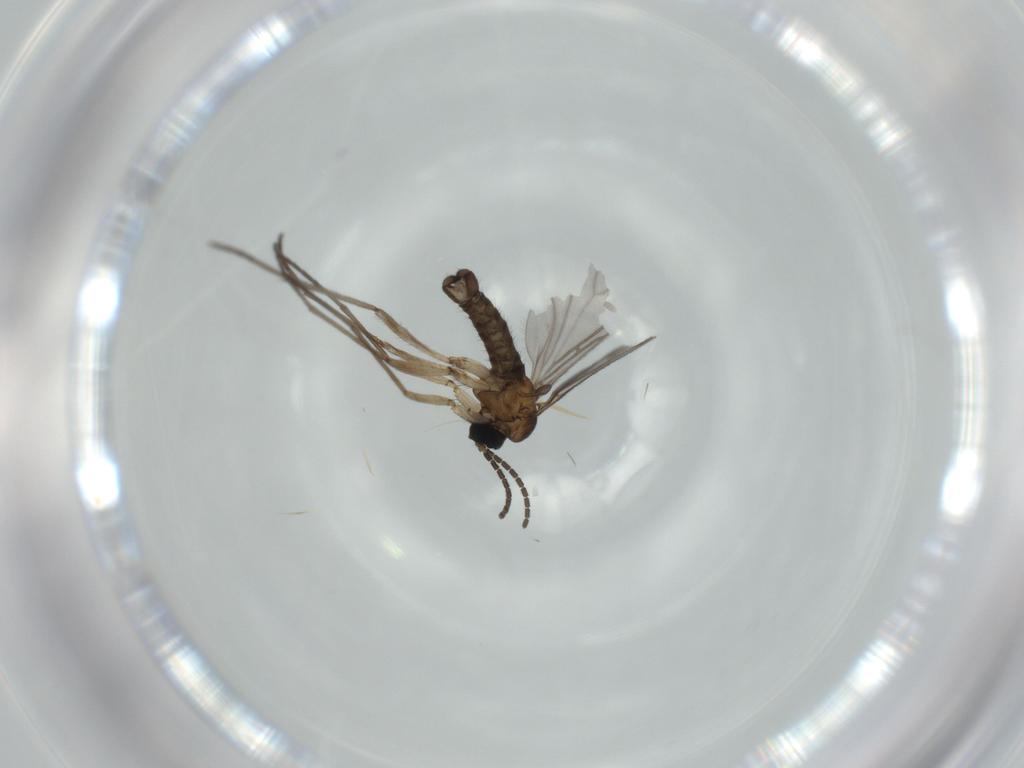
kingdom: Animalia
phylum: Arthropoda
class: Insecta
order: Diptera
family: Sciaridae
